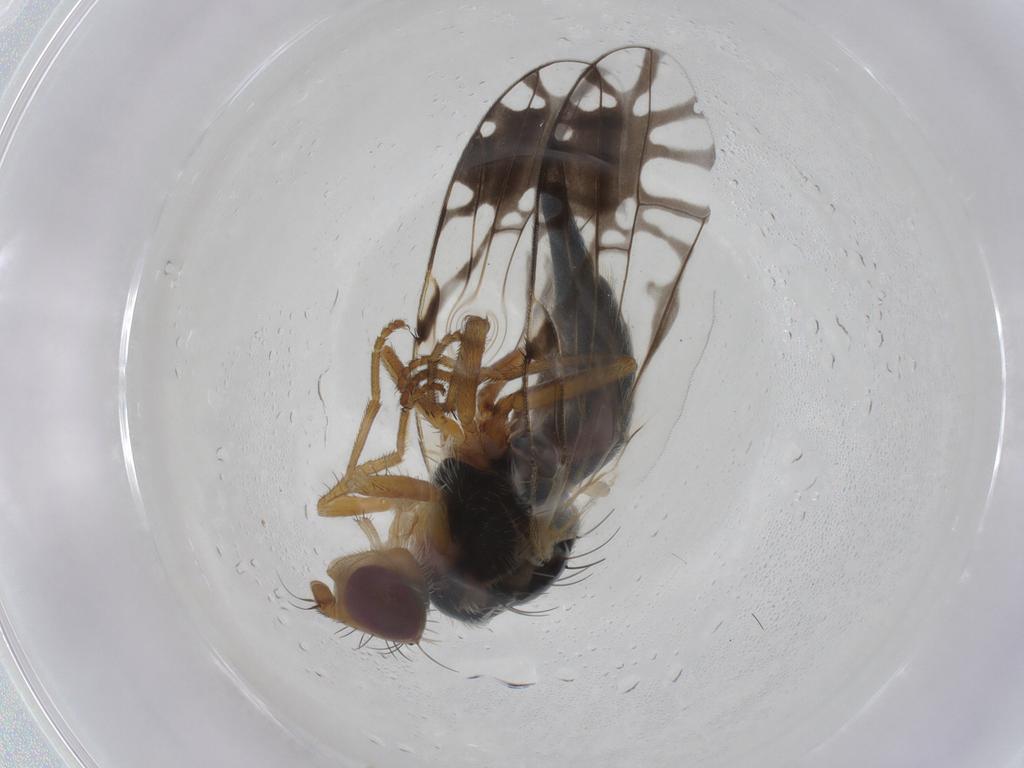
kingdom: Animalia
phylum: Arthropoda
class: Insecta
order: Diptera
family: Tephritidae
